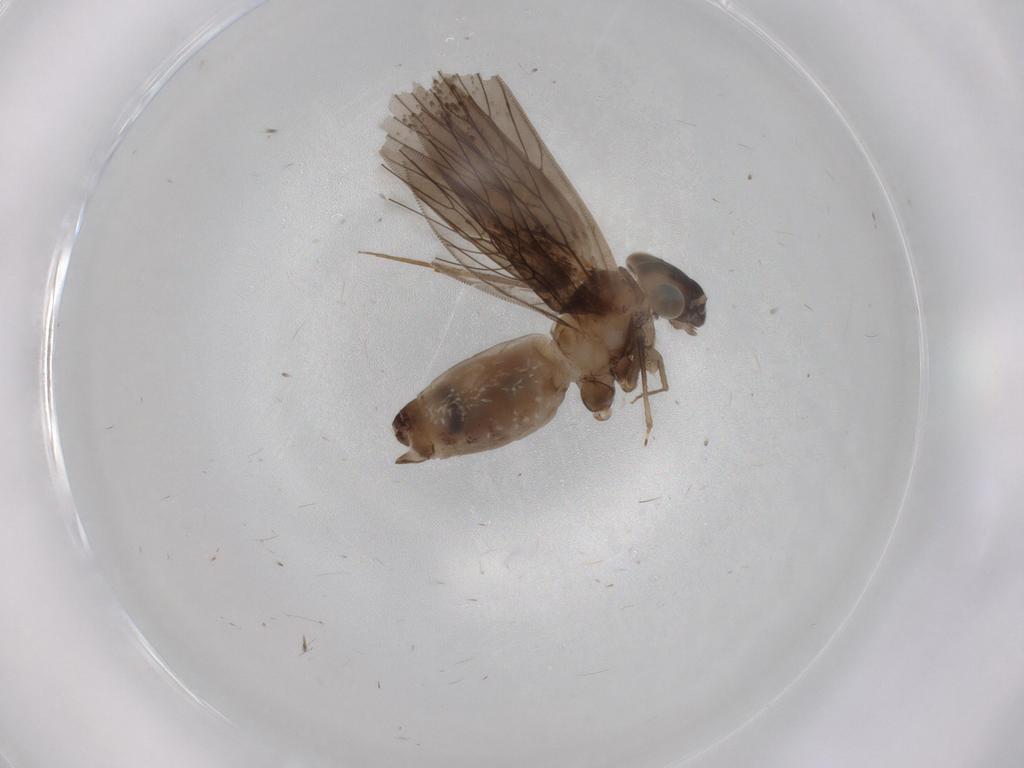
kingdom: Animalia
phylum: Arthropoda
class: Insecta
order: Psocodea
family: Lepidopsocidae
